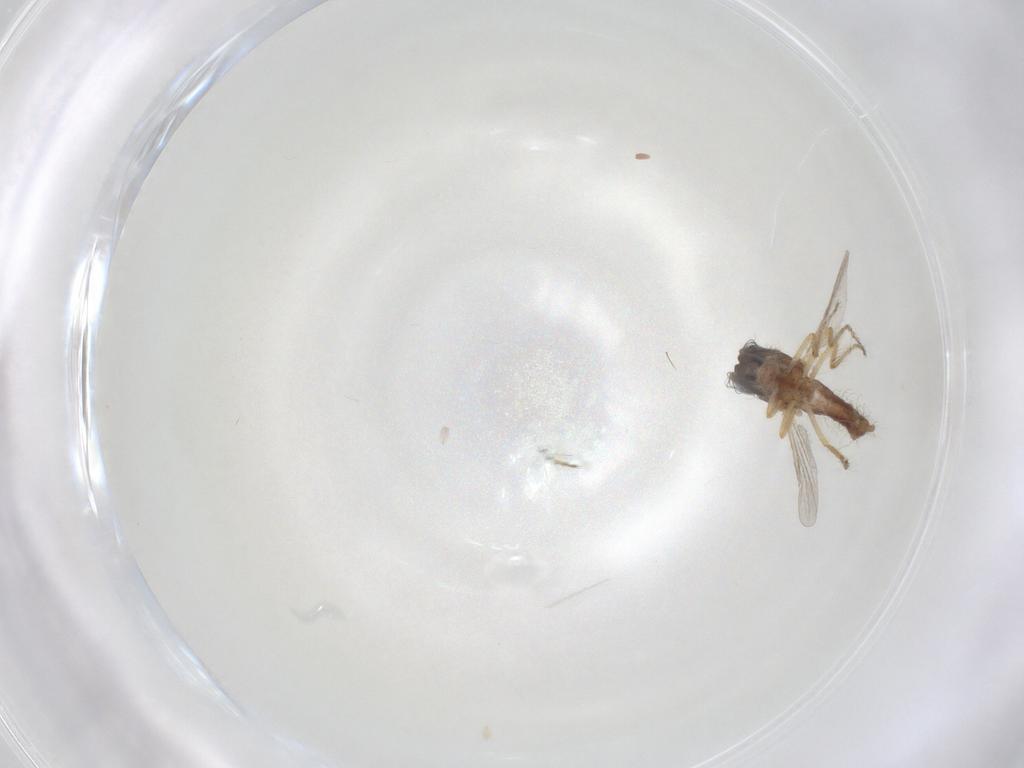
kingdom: Animalia
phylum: Arthropoda
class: Insecta
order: Diptera
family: Ceratopogonidae
